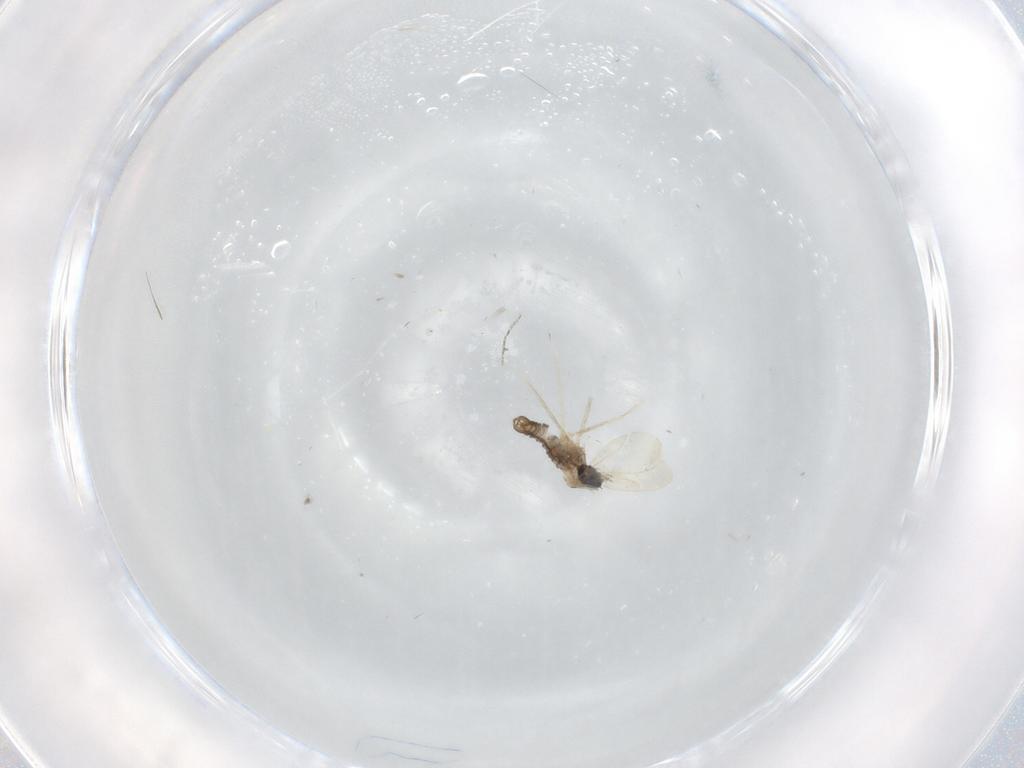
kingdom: Animalia
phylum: Arthropoda
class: Insecta
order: Diptera
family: Cecidomyiidae
